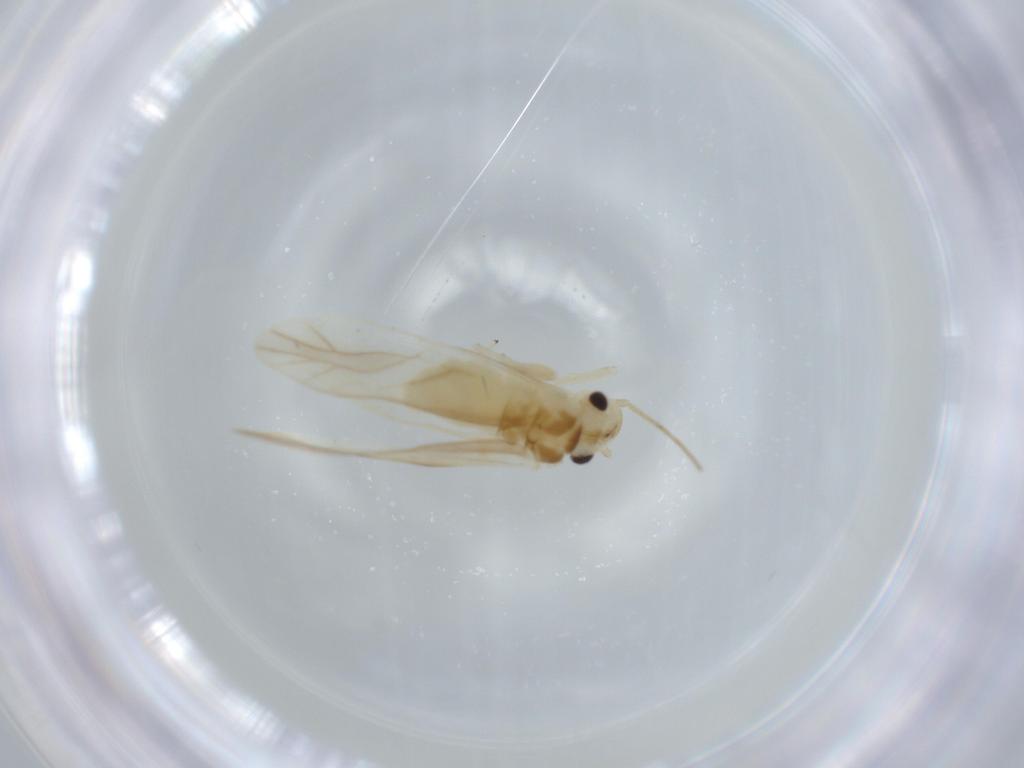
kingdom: Animalia
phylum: Arthropoda
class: Insecta
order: Psocodea
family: Caeciliusidae
